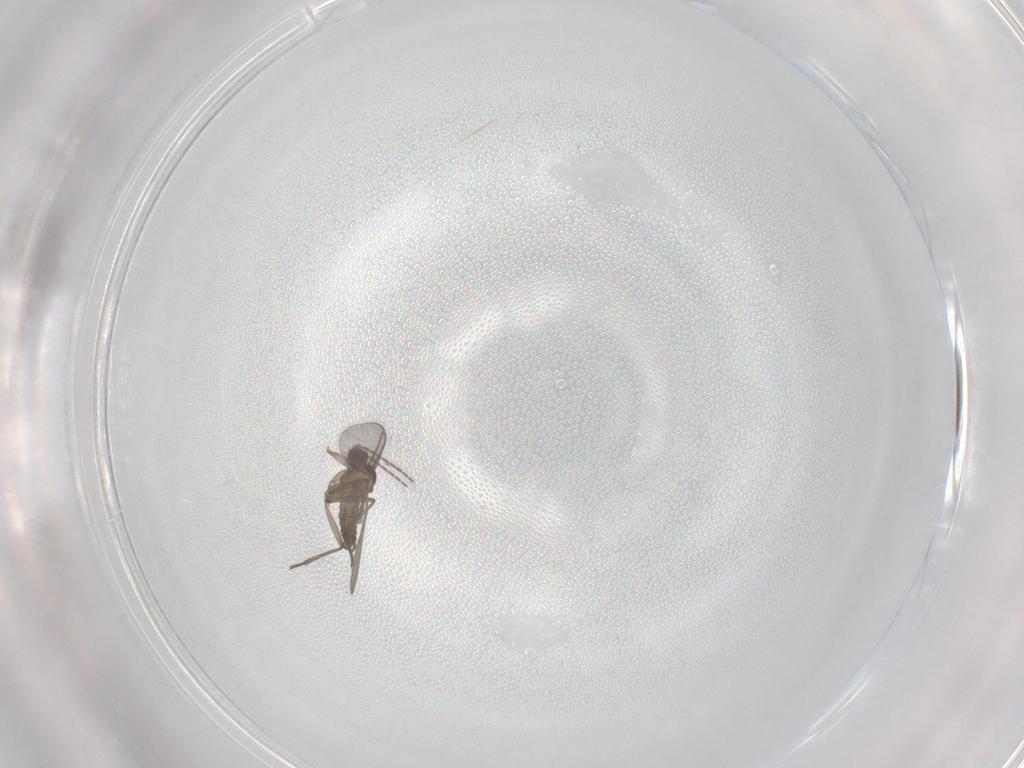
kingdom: Animalia
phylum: Arthropoda
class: Insecta
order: Diptera
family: Sciaridae
